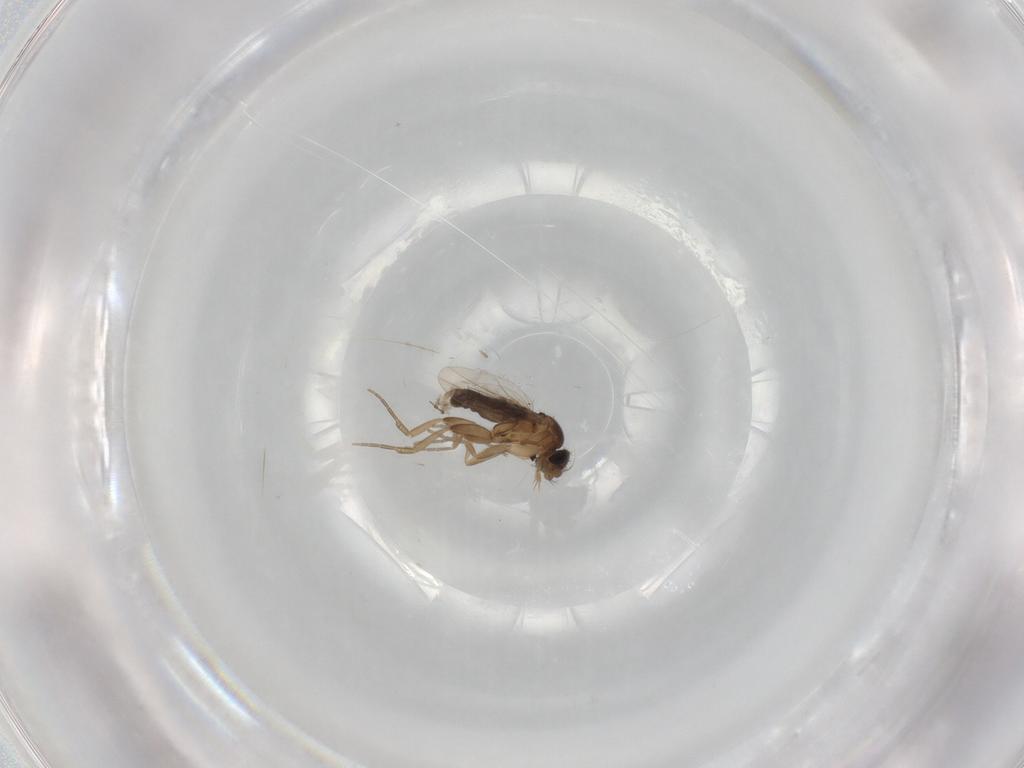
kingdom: Animalia
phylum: Arthropoda
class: Insecta
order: Diptera
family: Phoridae
